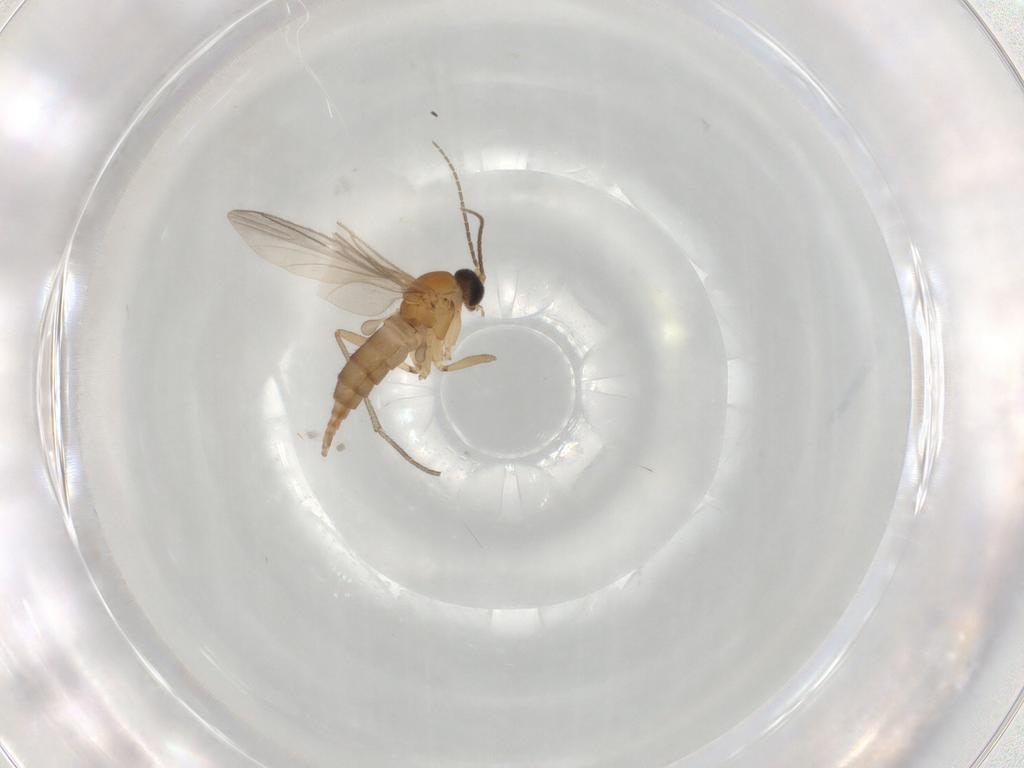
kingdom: Animalia
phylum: Arthropoda
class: Insecta
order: Diptera
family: Sciaridae
